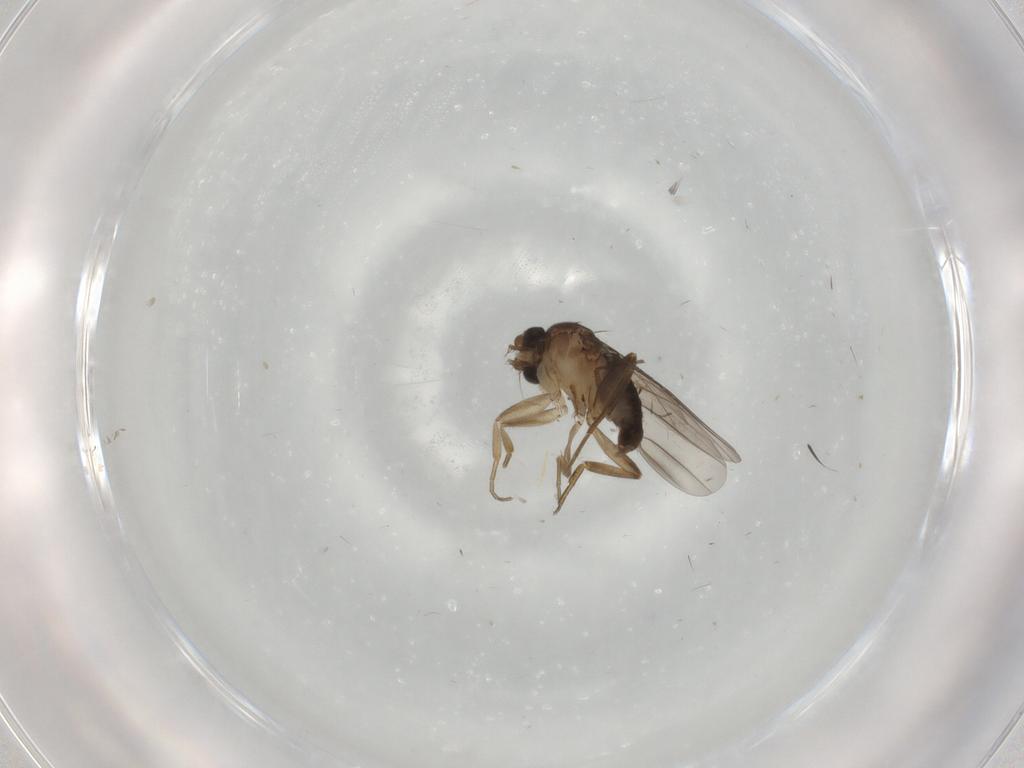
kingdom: Animalia
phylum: Arthropoda
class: Insecta
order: Diptera
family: Phoridae
